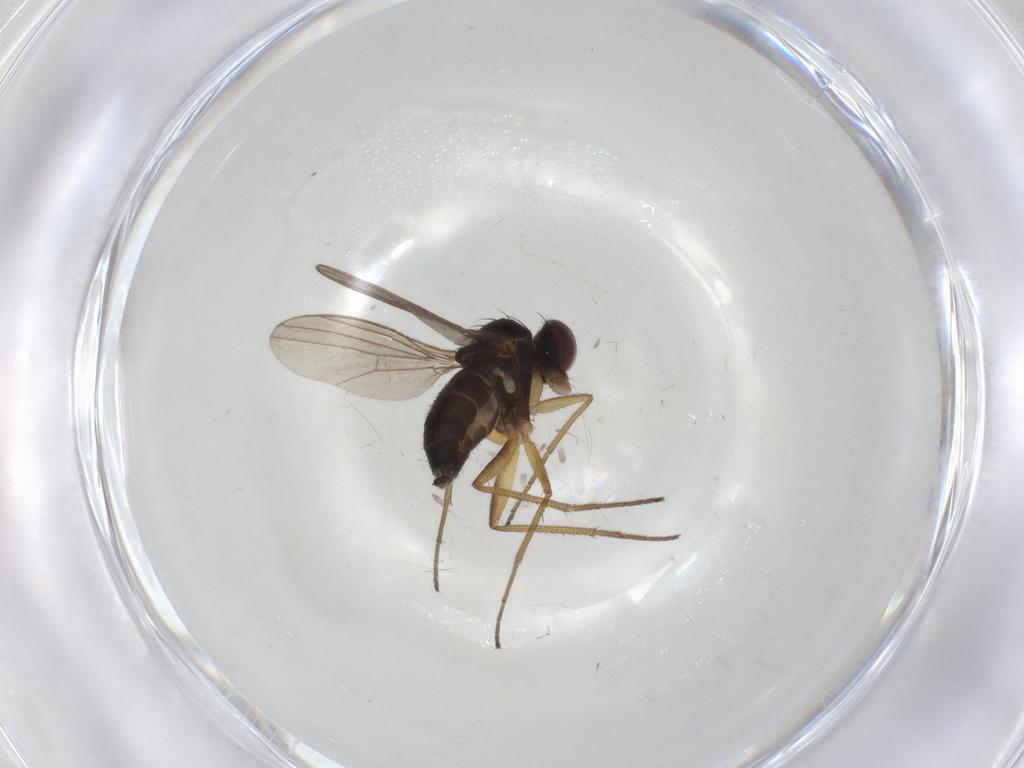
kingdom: Animalia
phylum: Arthropoda
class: Insecta
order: Diptera
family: Dolichopodidae
